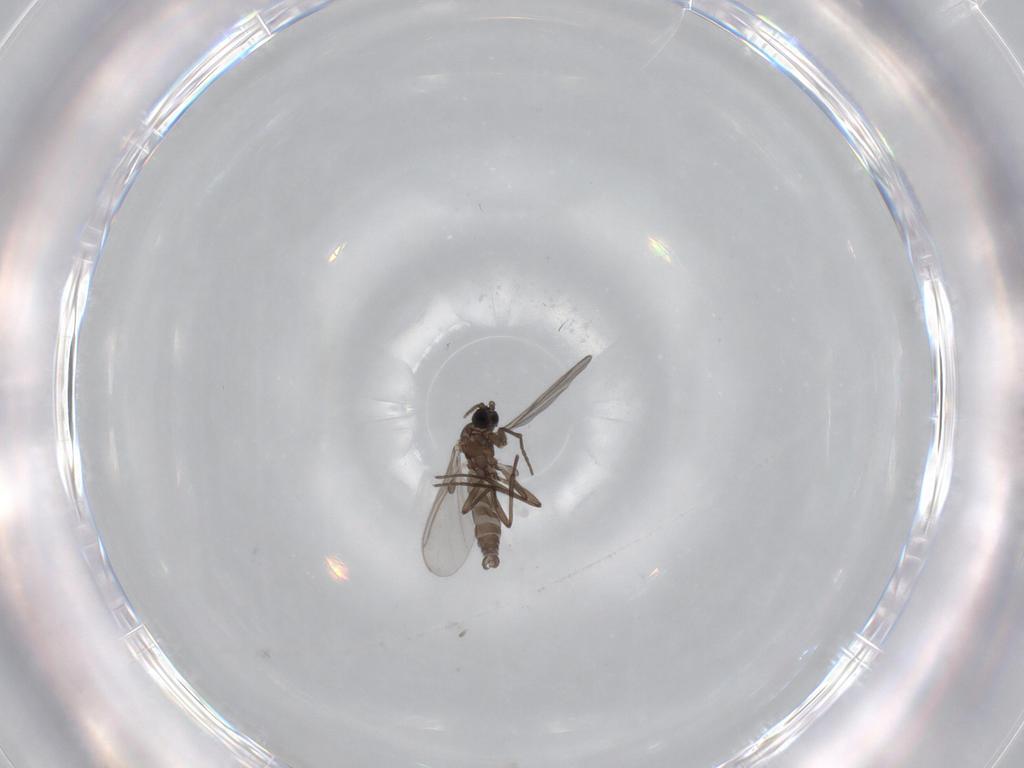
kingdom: Animalia
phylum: Arthropoda
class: Insecta
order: Diptera
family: Sciaridae
